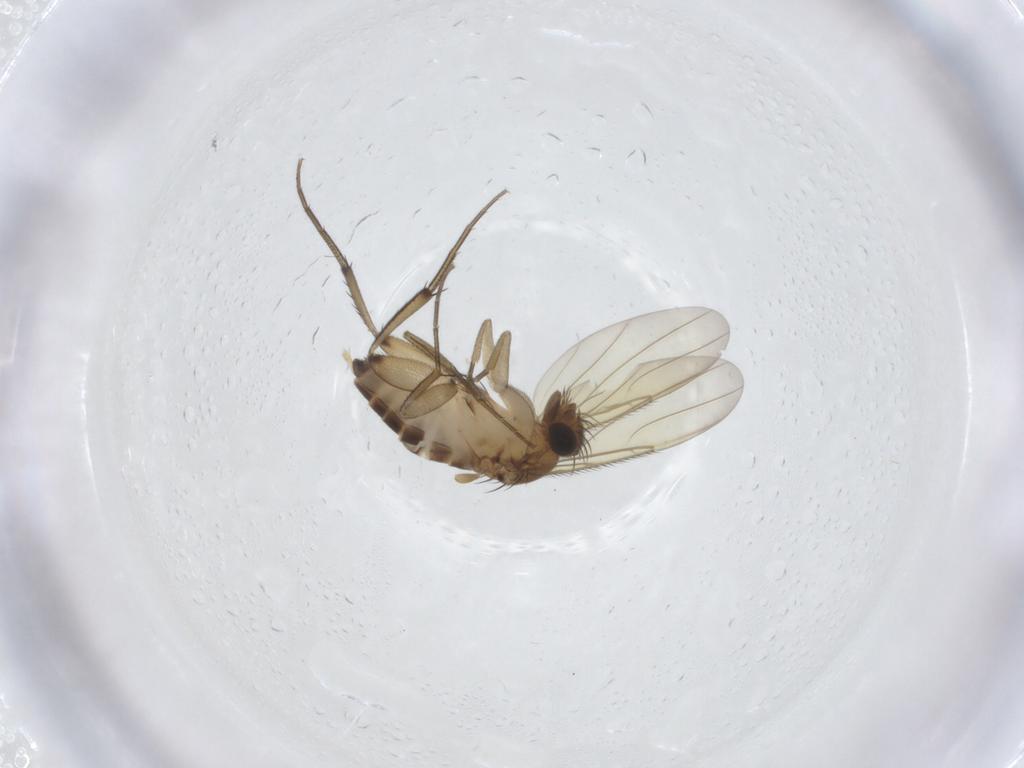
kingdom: Animalia
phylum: Arthropoda
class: Insecta
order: Diptera
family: Phoridae
